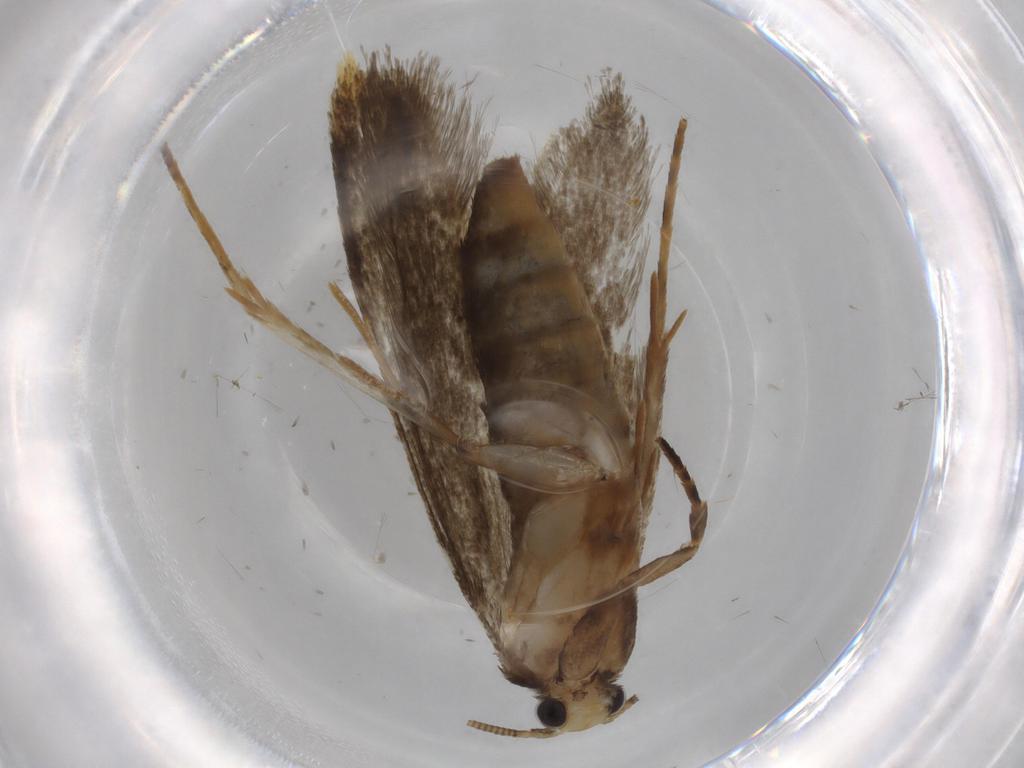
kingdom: Animalia
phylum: Arthropoda
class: Insecta
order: Lepidoptera
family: Tineidae
